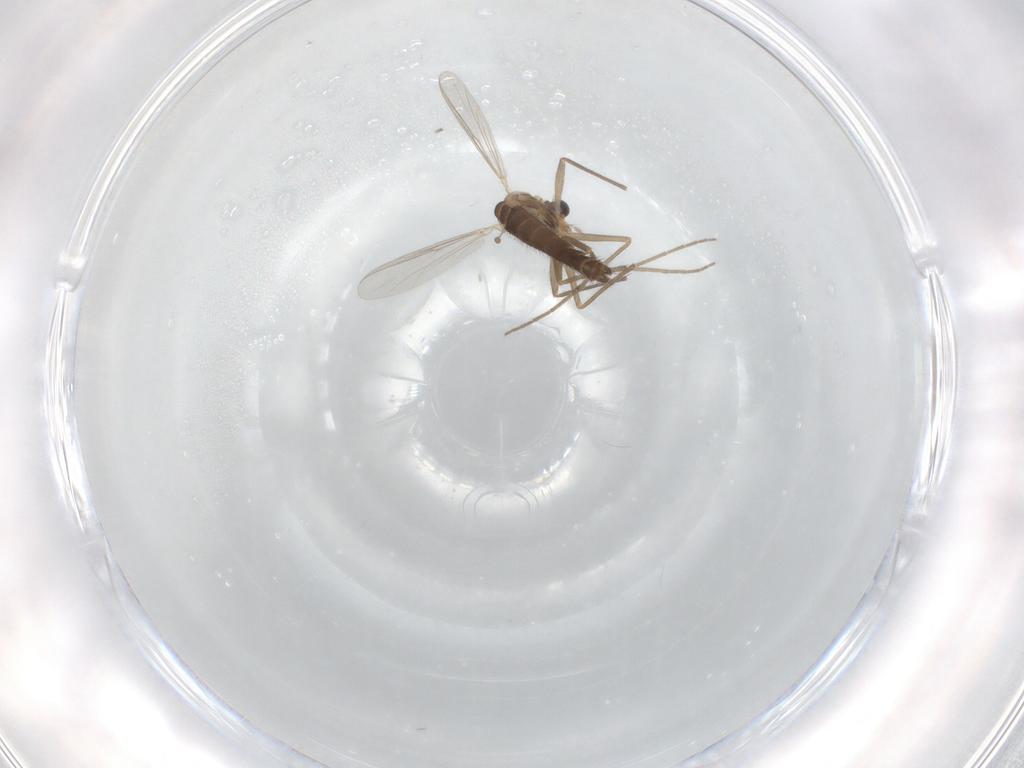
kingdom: Animalia
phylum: Arthropoda
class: Insecta
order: Diptera
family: Chironomidae
